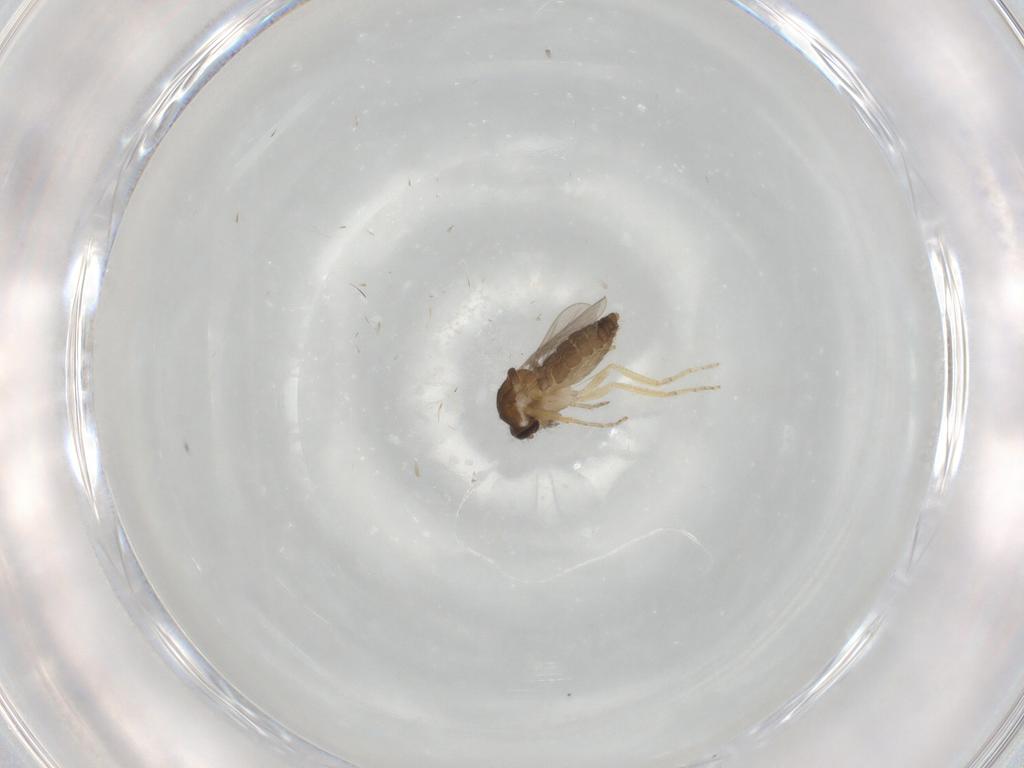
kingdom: Animalia
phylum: Arthropoda
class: Insecta
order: Diptera
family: Ceratopogonidae
